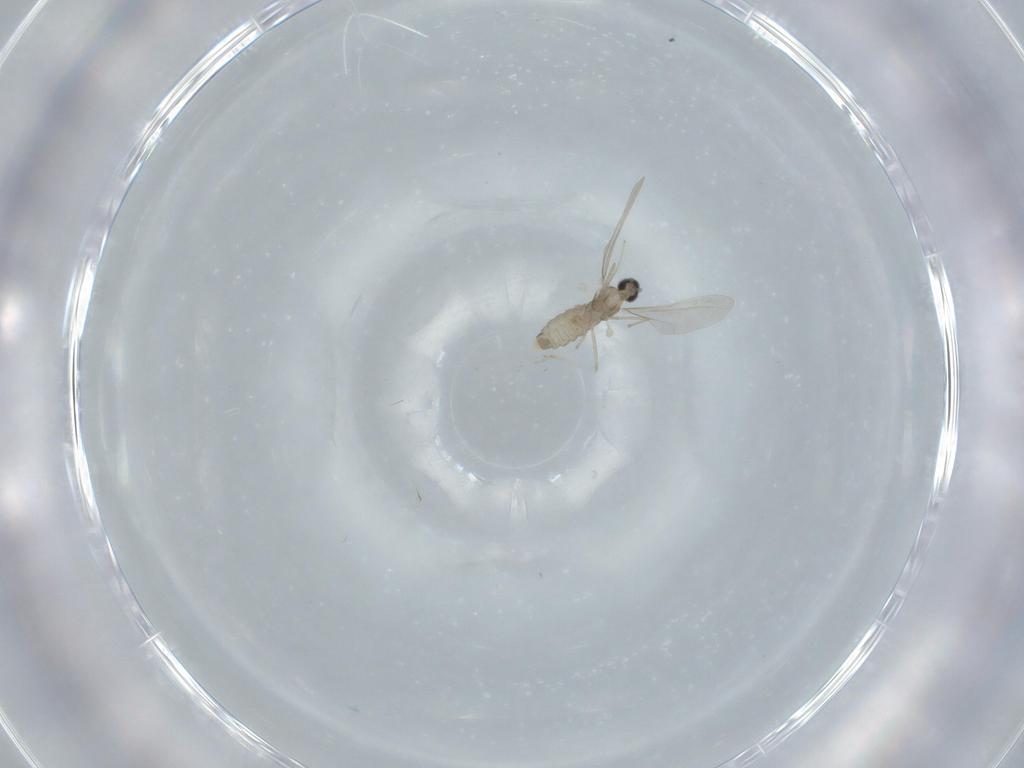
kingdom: Animalia
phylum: Arthropoda
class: Insecta
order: Diptera
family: Cecidomyiidae
